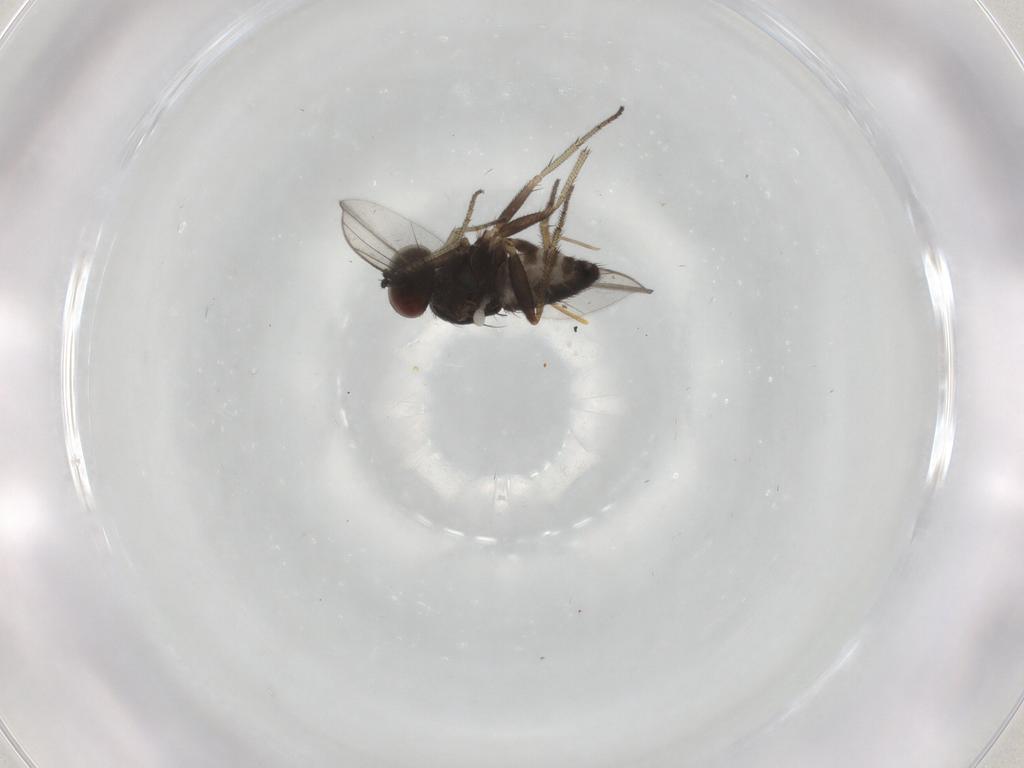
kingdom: Animalia
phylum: Arthropoda
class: Insecta
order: Diptera
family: Dolichopodidae
